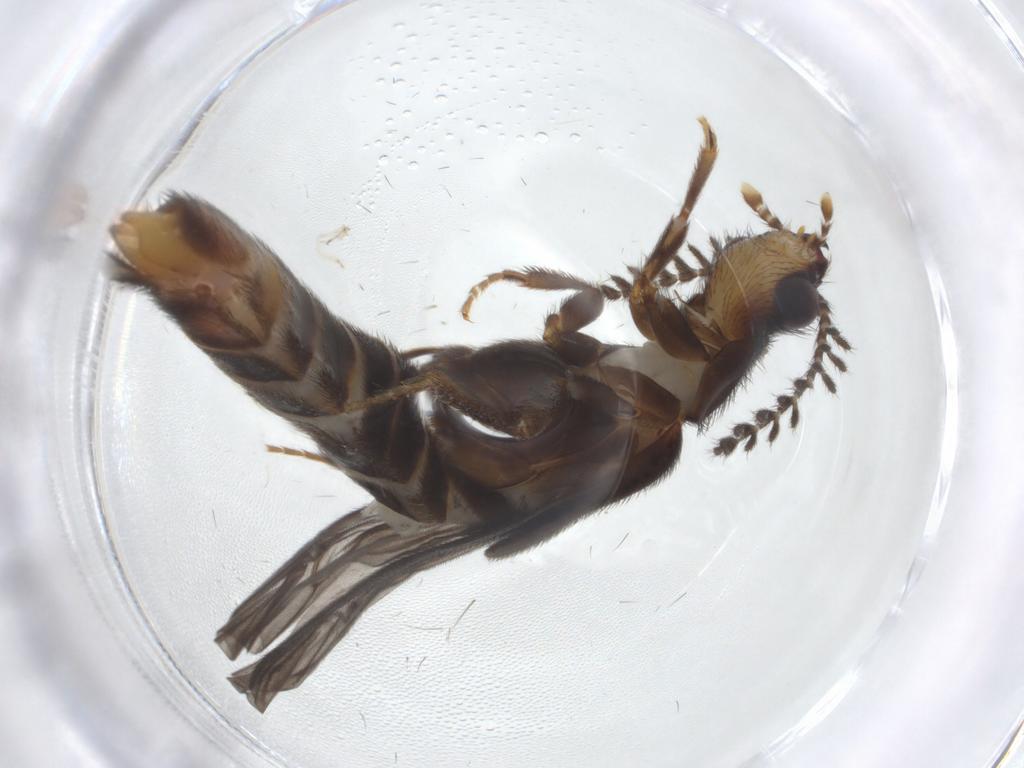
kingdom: Animalia
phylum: Arthropoda
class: Insecta
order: Coleoptera
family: Phengodidae
